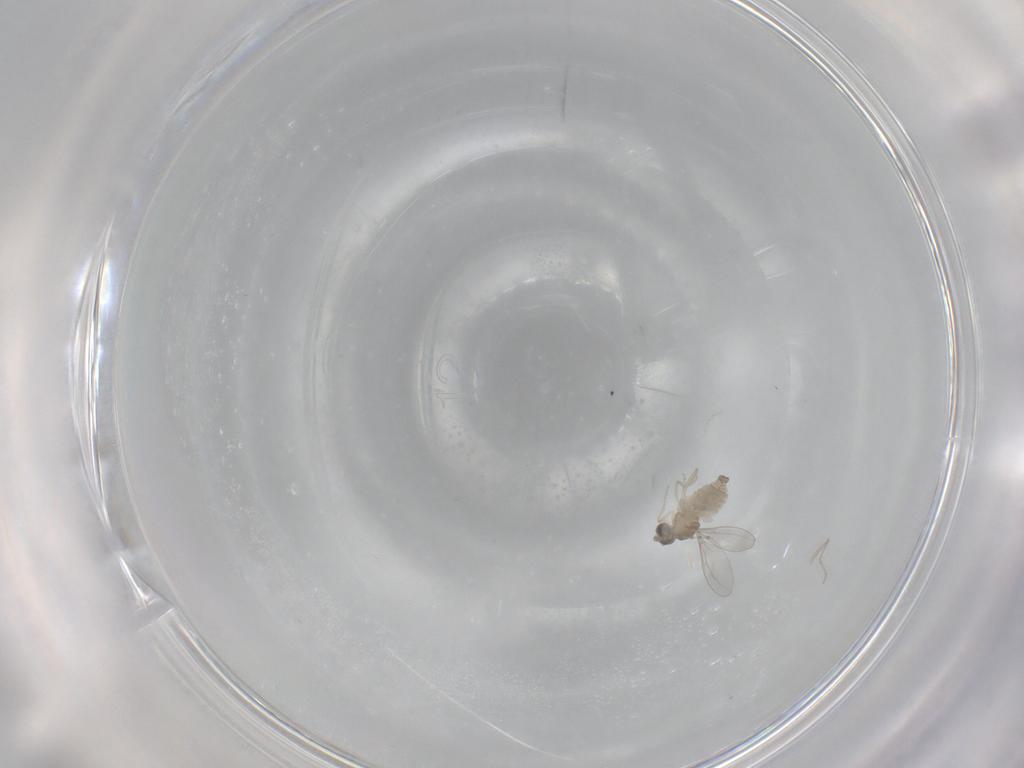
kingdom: Animalia
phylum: Arthropoda
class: Insecta
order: Diptera
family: Cecidomyiidae
